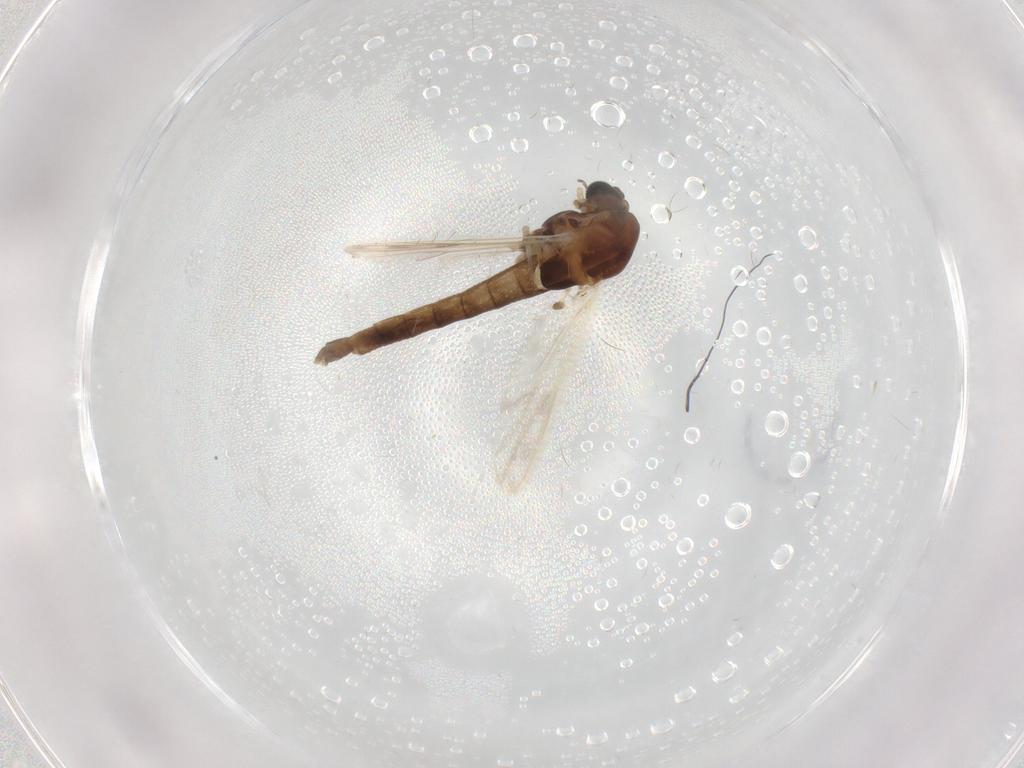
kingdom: Animalia
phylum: Arthropoda
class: Insecta
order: Diptera
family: Chironomidae
